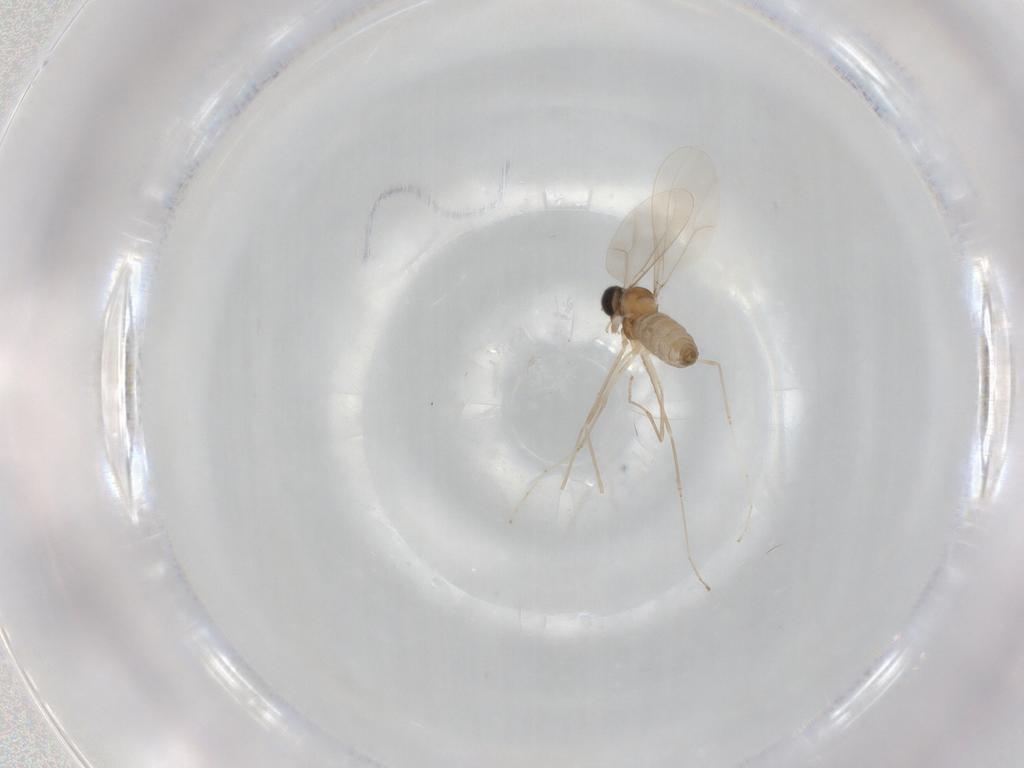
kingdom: Animalia
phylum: Arthropoda
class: Insecta
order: Diptera
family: Cecidomyiidae
